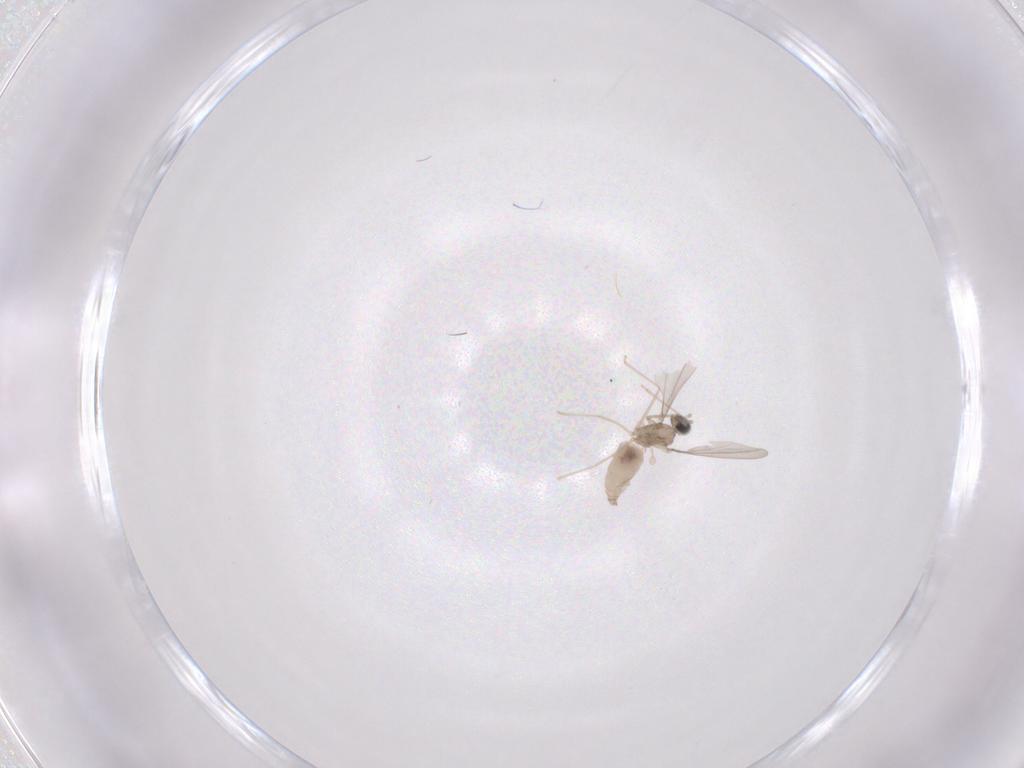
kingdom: Animalia
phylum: Arthropoda
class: Insecta
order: Diptera
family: Cecidomyiidae
